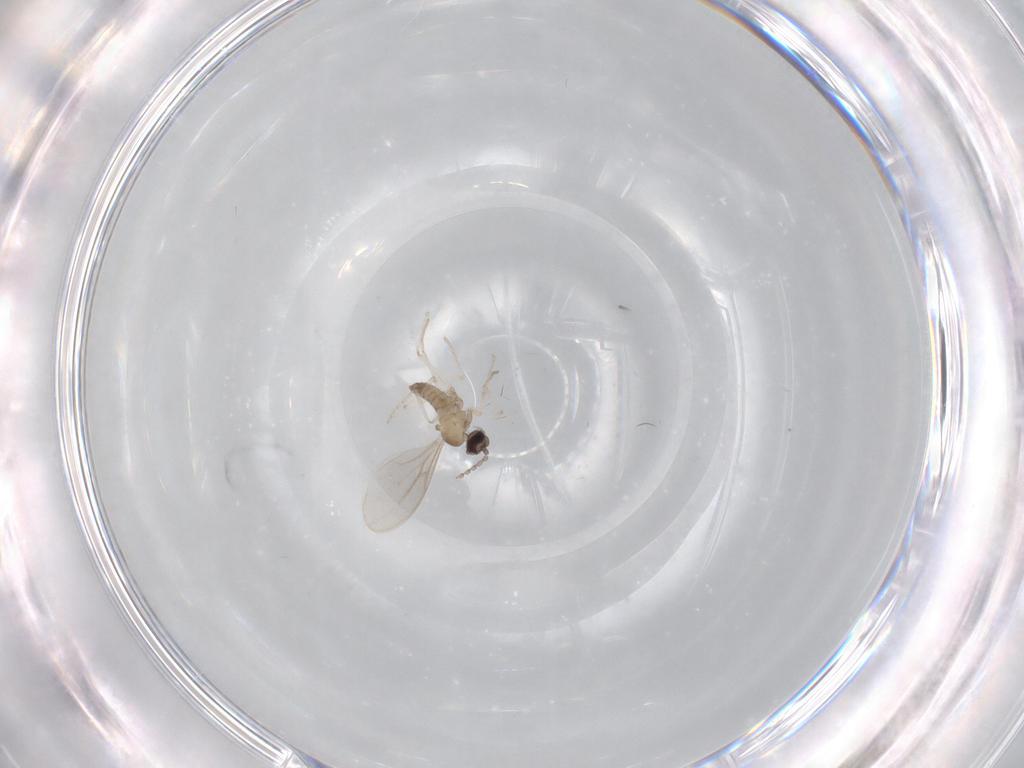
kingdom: Animalia
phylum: Arthropoda
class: Insecta
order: Diptera
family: Cecidomyiidae
